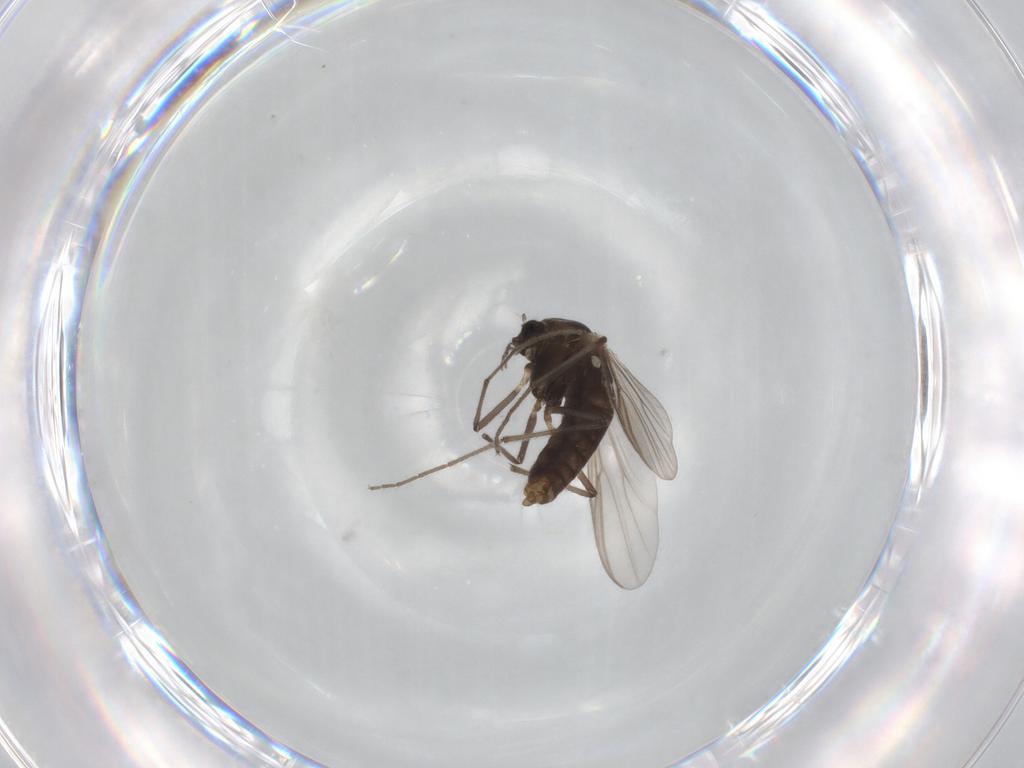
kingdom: Animalia
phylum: Arthropoda
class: Insecta
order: Diptera
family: Chironomidae
